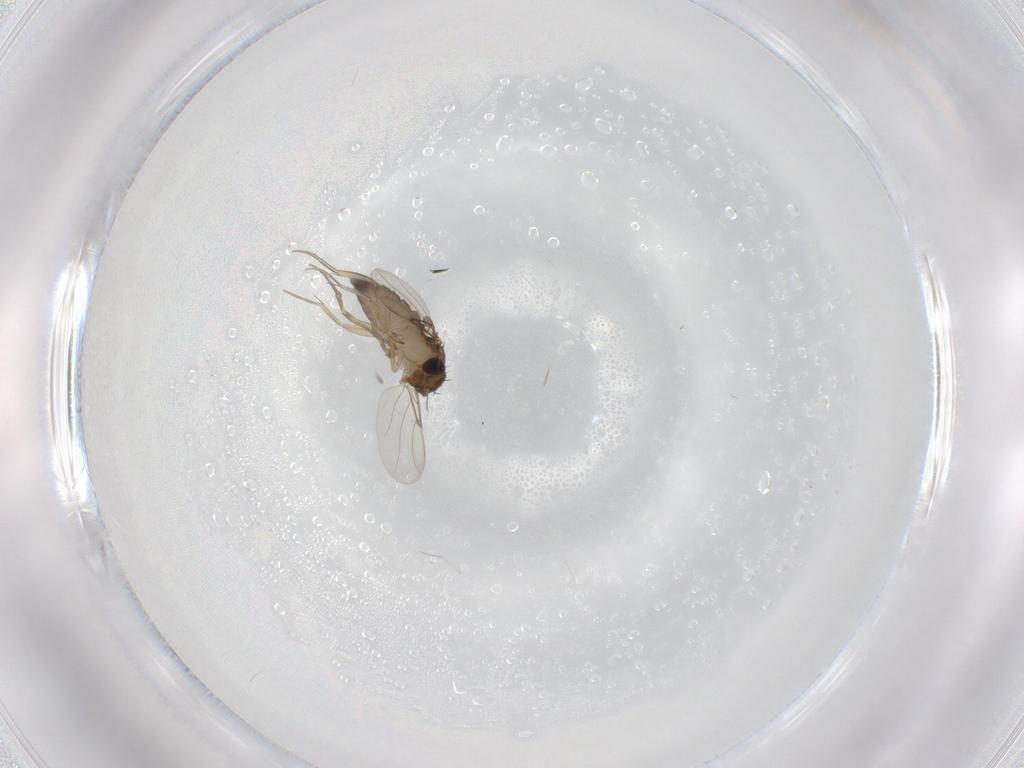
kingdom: Animalia
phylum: Arthropoda
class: Insecta
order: Diptera
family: Phoridae
